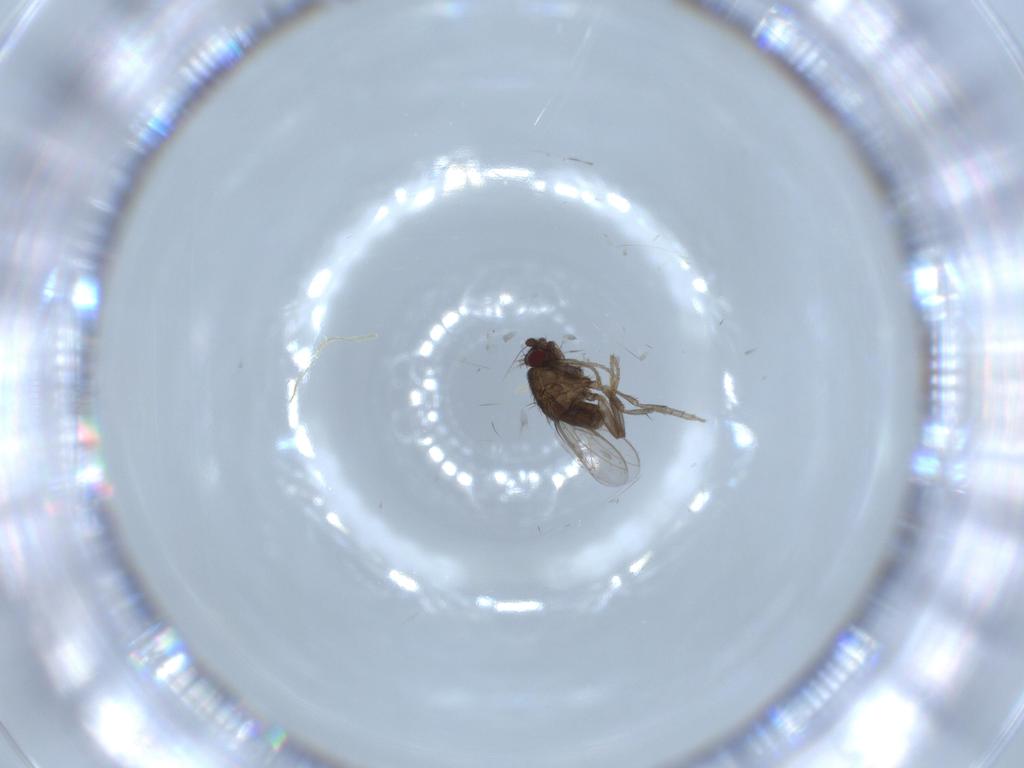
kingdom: Animalia
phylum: Arthropoda
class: Insecta
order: Diptera
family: Sphaeroceridae
